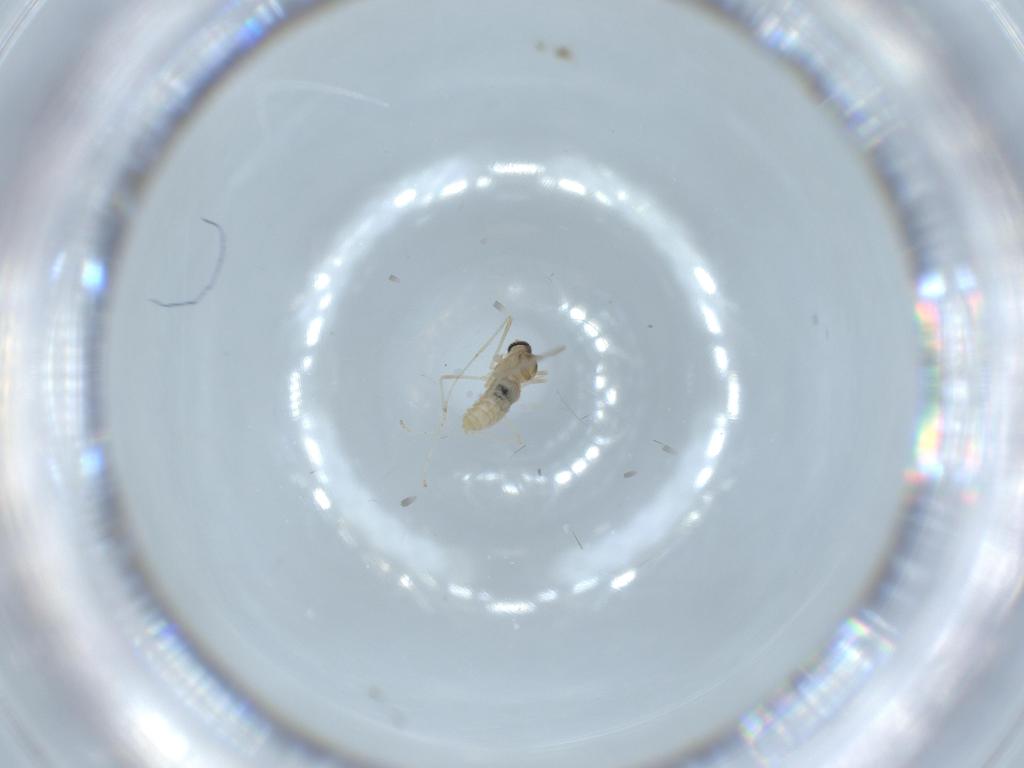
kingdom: Animalia
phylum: Arthropoda
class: Insecta
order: Diptera
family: Cecidomyiidae
